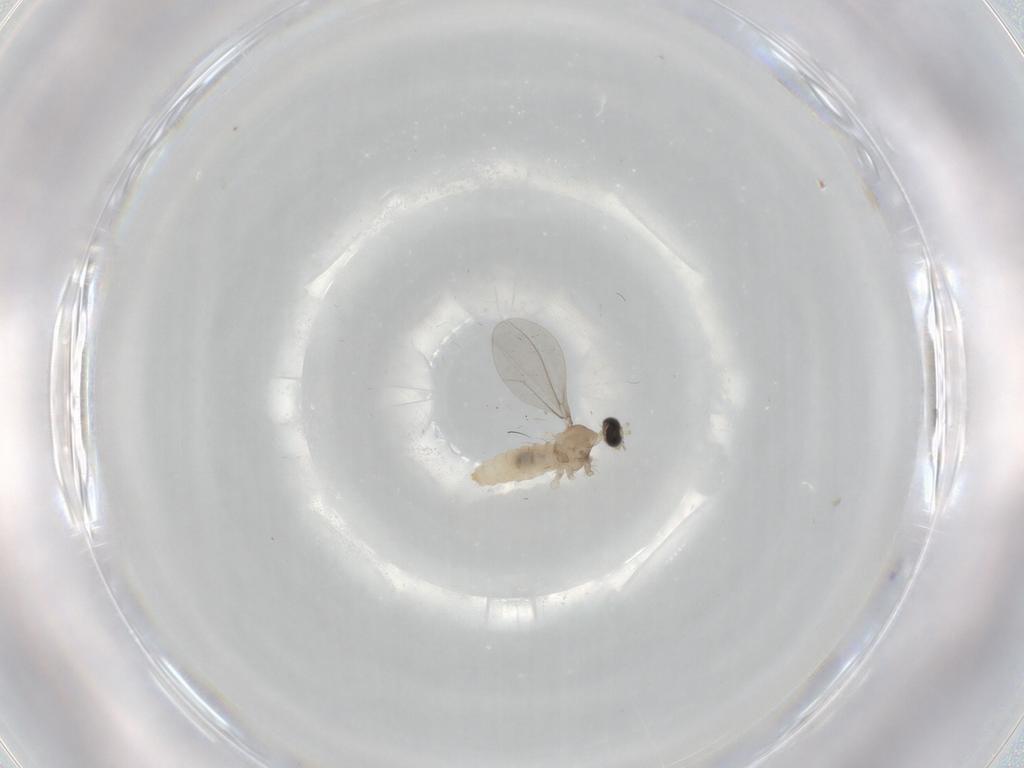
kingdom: Animalia
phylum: Arthropoda
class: Insecta
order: Diptera
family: Cecidomyiidae
